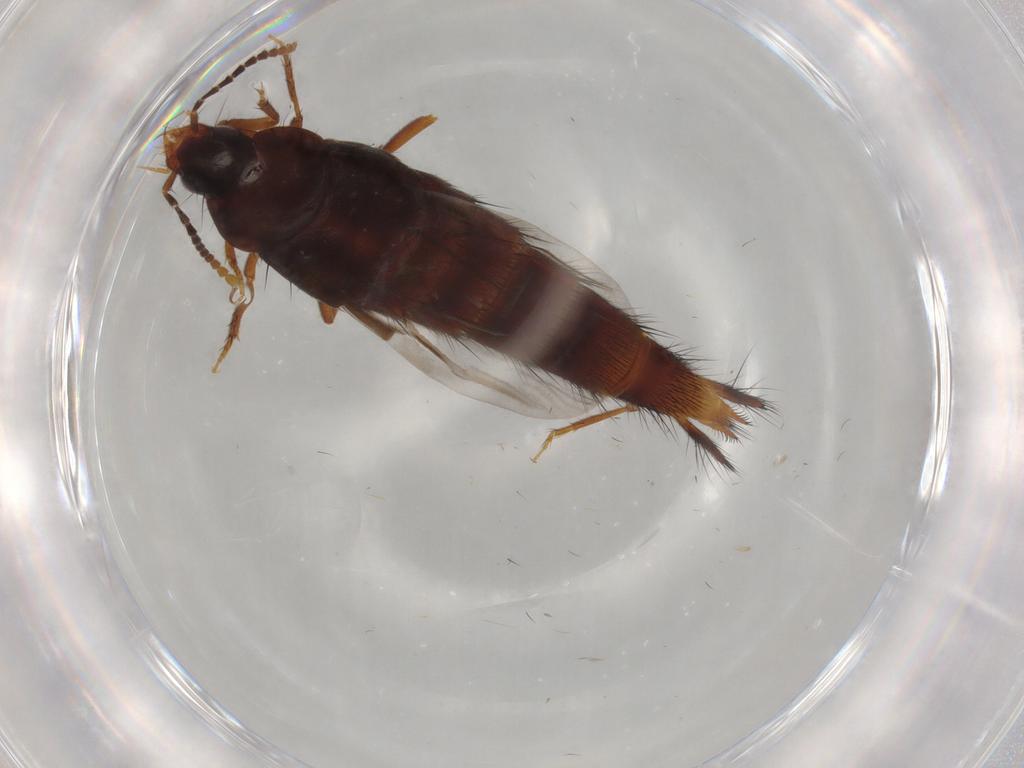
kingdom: Animalia
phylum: Arthropoda
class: Insecta
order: Coleoptera
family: Staphylinidae
